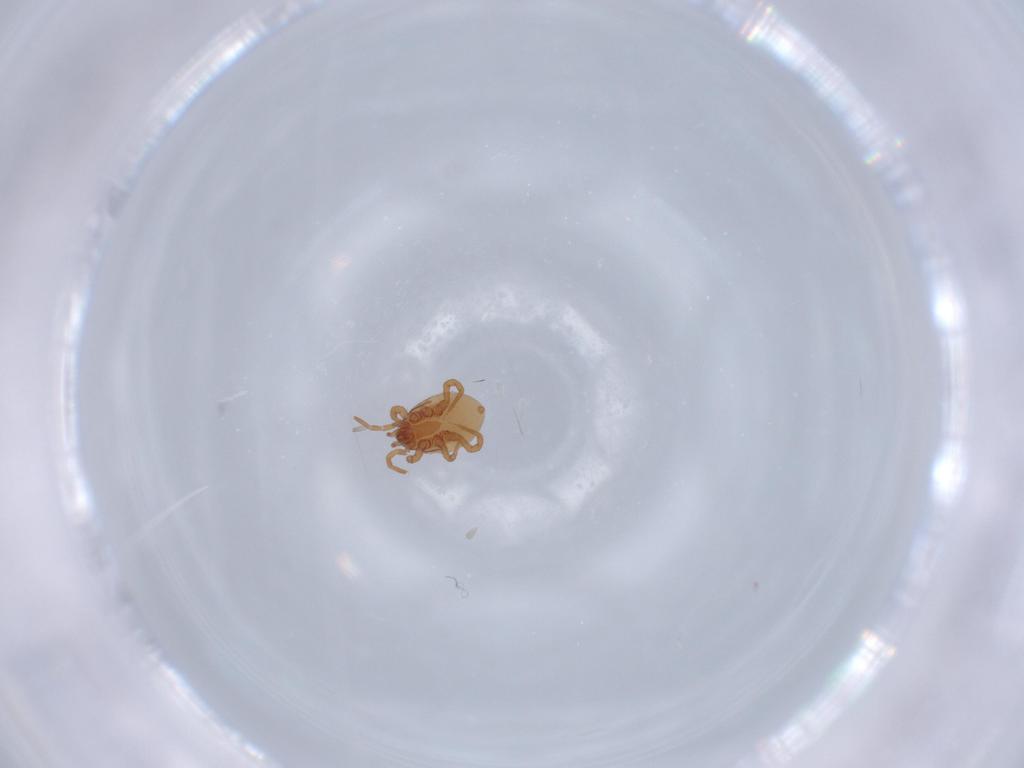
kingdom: Animalia
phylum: Arthropoda
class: Arachnida
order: Mesostigmata
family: Parasitidae
